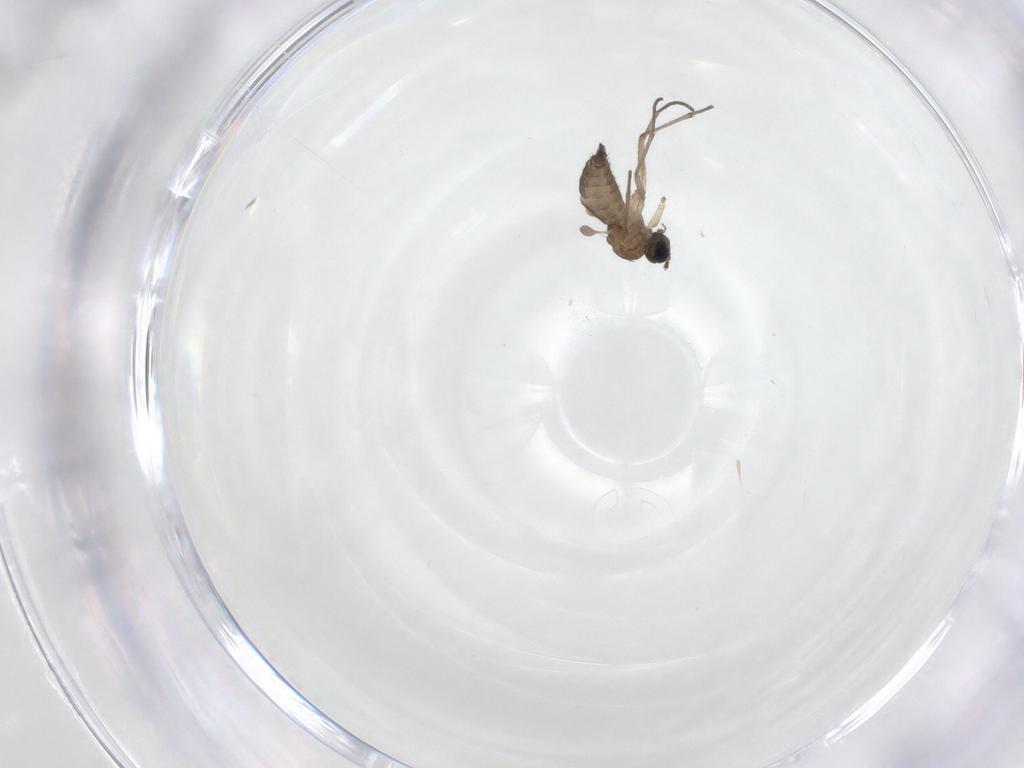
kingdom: Animalia
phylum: Arthropoda
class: Insecta
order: Diptera
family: Sciaridae
